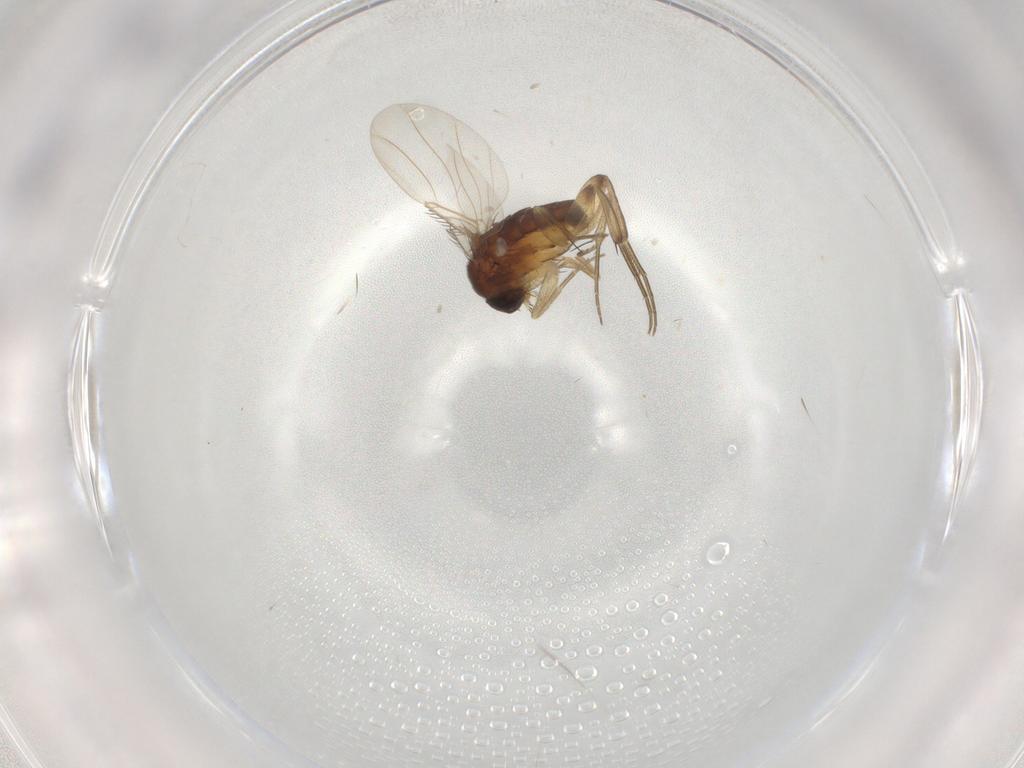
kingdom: Animalia
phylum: Arthropoda
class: Insecta
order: Diptera
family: Phoridae
